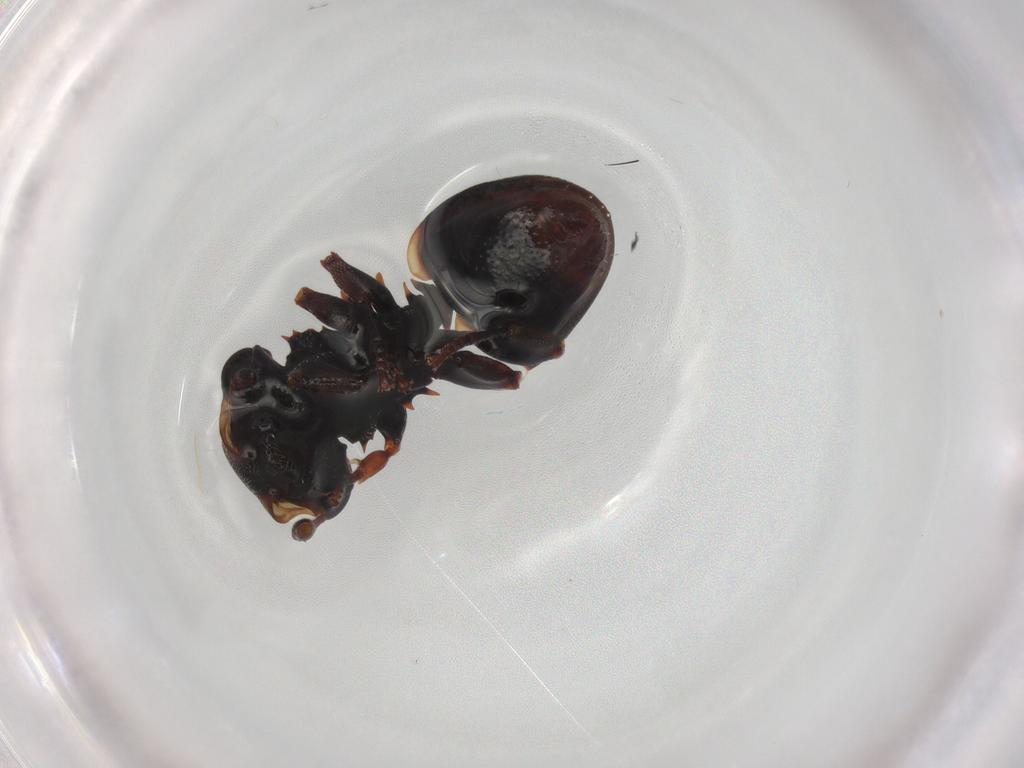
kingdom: Animalia
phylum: Arthropoda
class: Insecta
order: Hymenoptera
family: Formicidae
